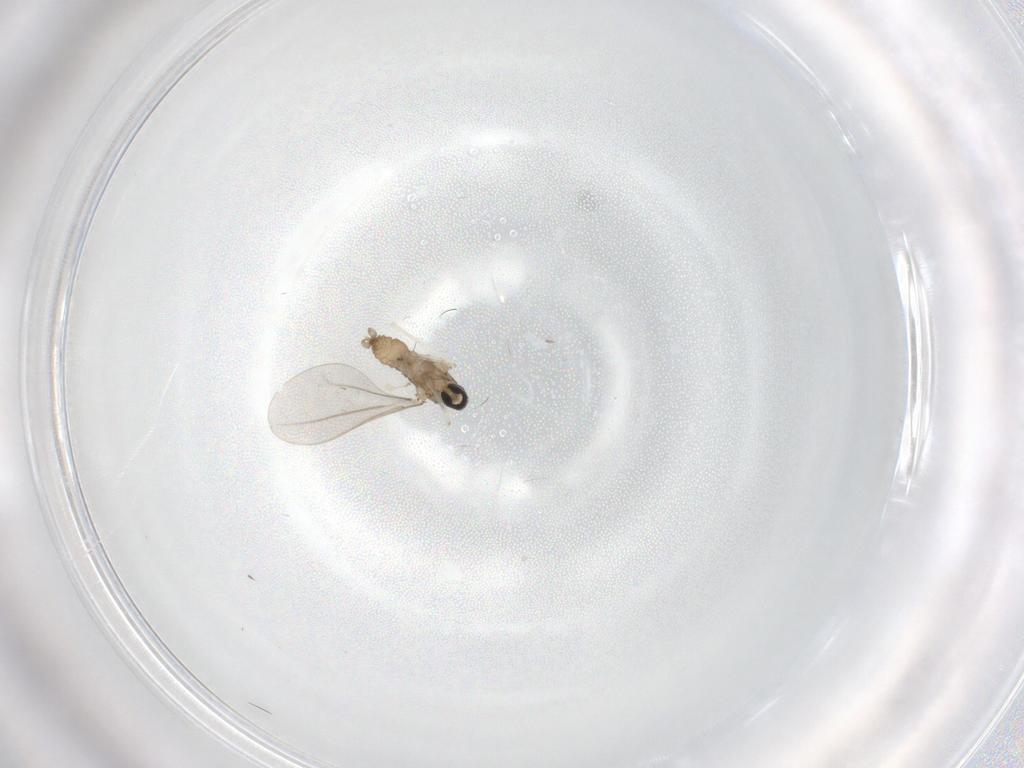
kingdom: Animalia
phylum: Arthropoda
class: Insecta
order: Diptera
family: Cecidomyiidae
